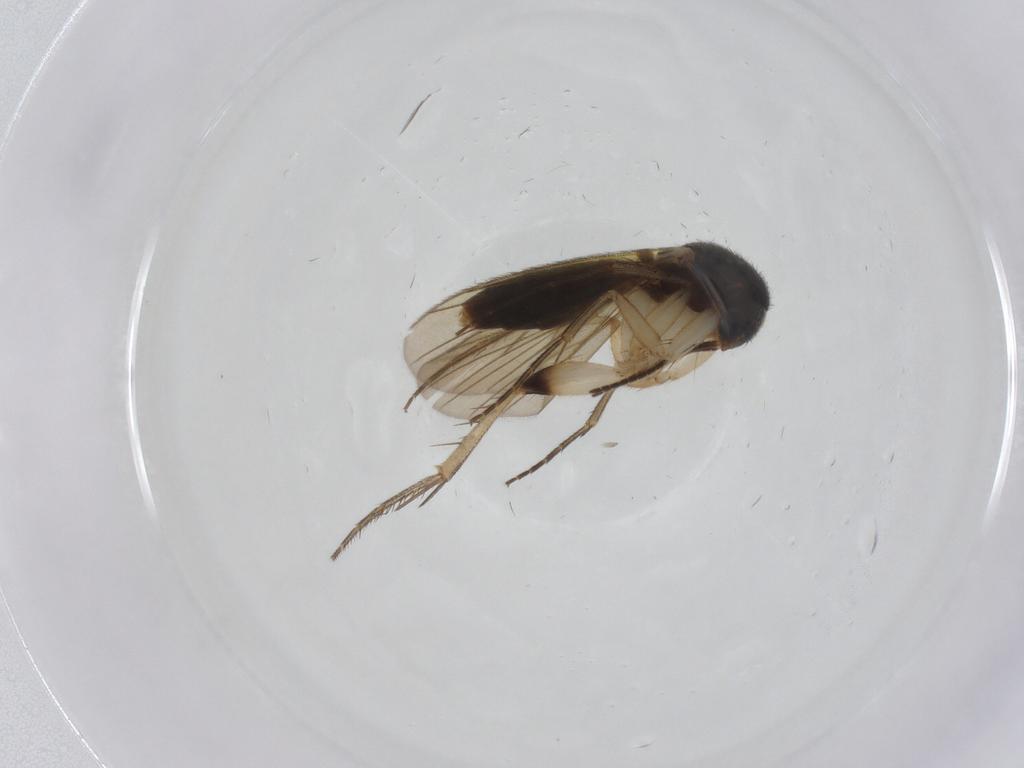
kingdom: Animalia
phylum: Arthropoda
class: Insecta
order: Diptera
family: Mycetophilidae
